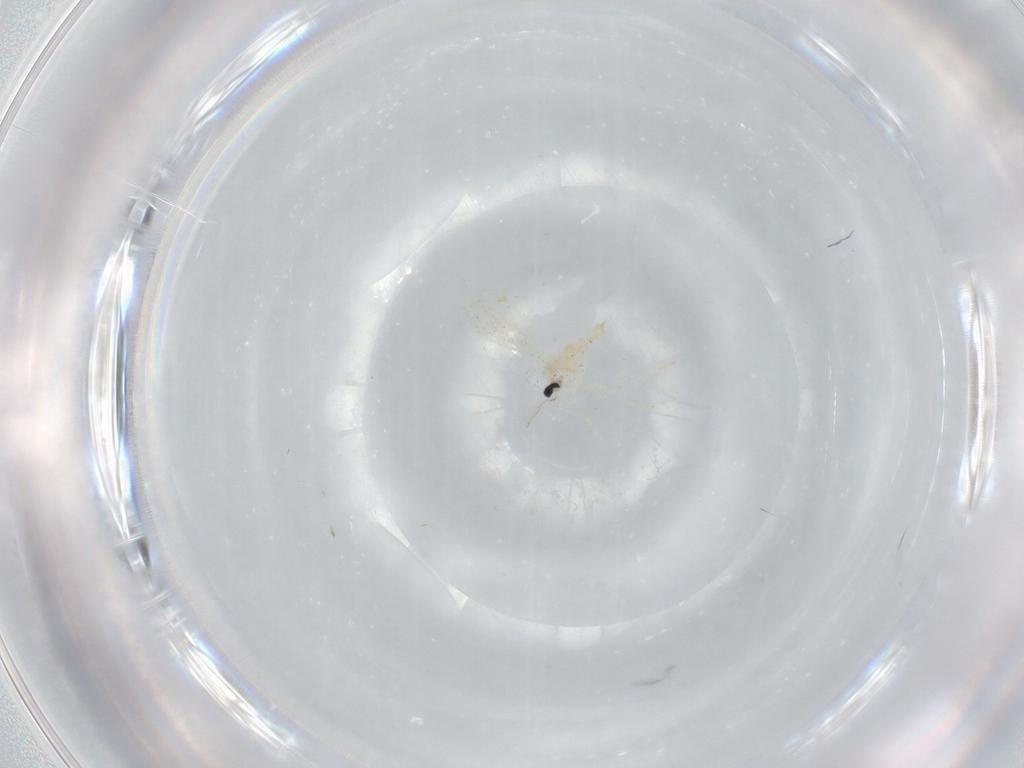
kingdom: Animalia
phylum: Arthropoda
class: Insecta
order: Diptera
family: Cecidomyiidae
